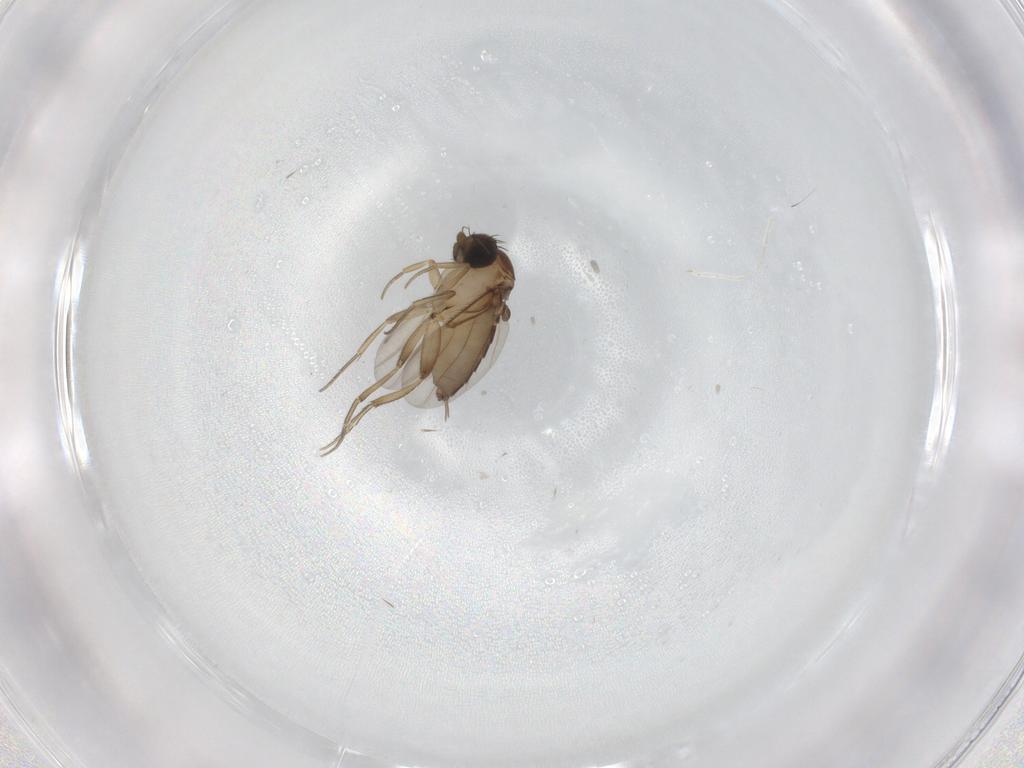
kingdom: Animalia
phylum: Arthropoda
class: Insecta
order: Diptera
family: Phoridae
